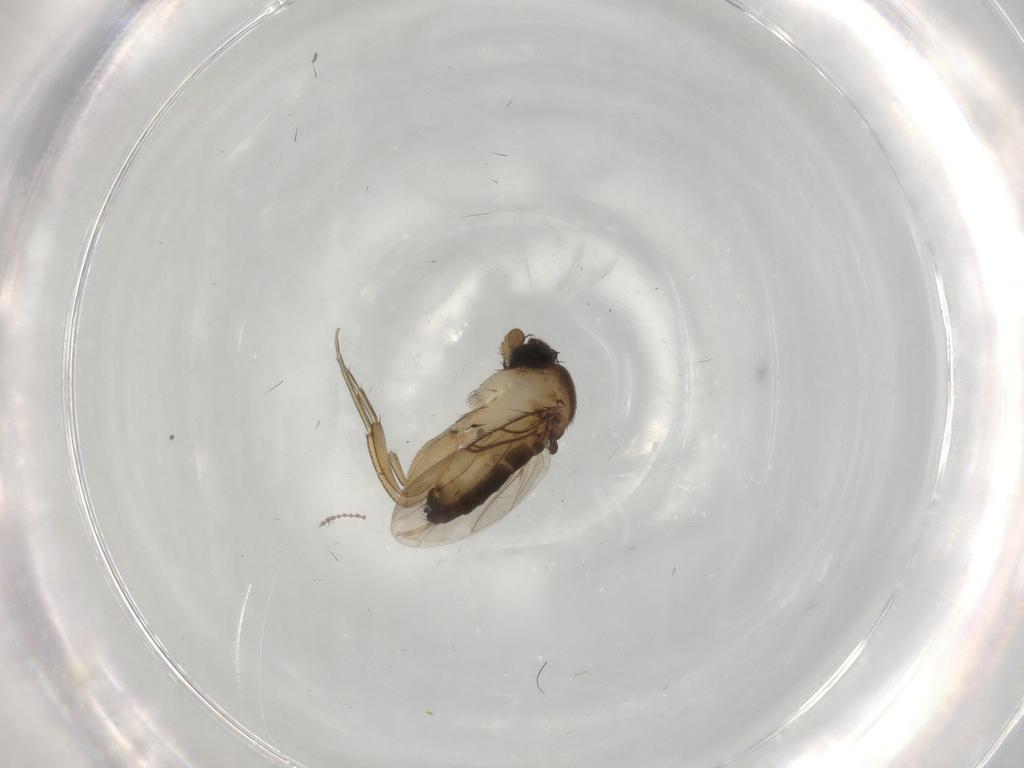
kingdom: Animalia
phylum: Arthropoda
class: Insecta
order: Diptera
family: Phoridae
